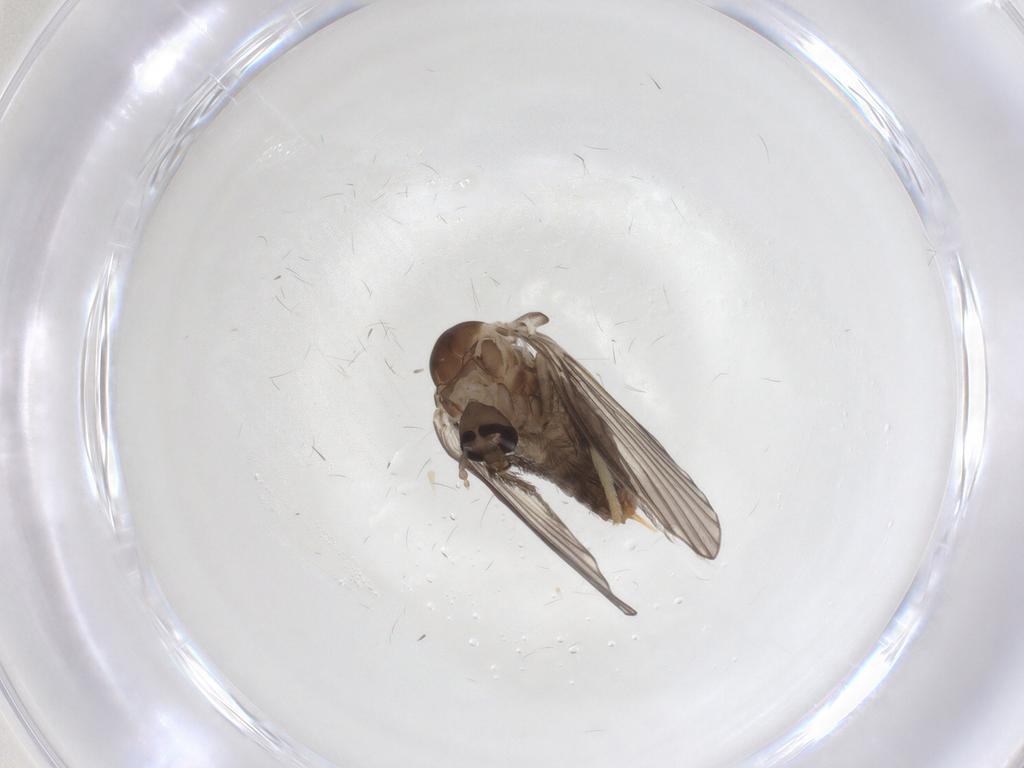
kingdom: Animalia
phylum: Arthropoda
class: Insecta
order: Diptera
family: Psychodidae
